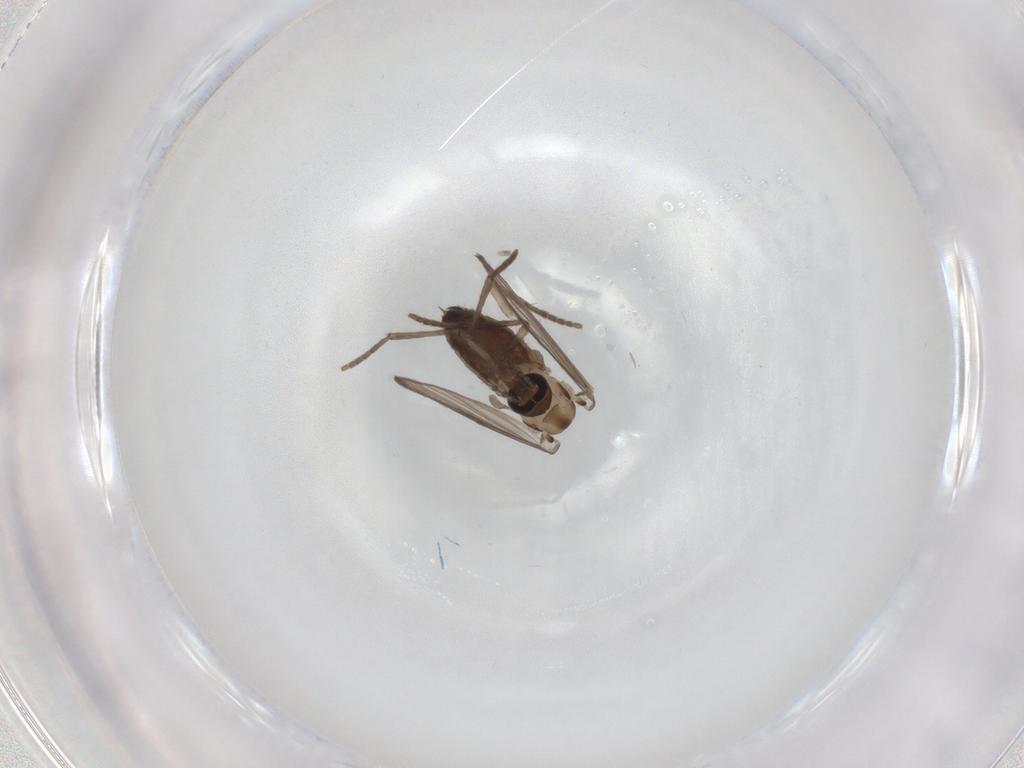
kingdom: Animalia
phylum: Arthropoda
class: Insecta
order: Diptera
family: Psychodidae
